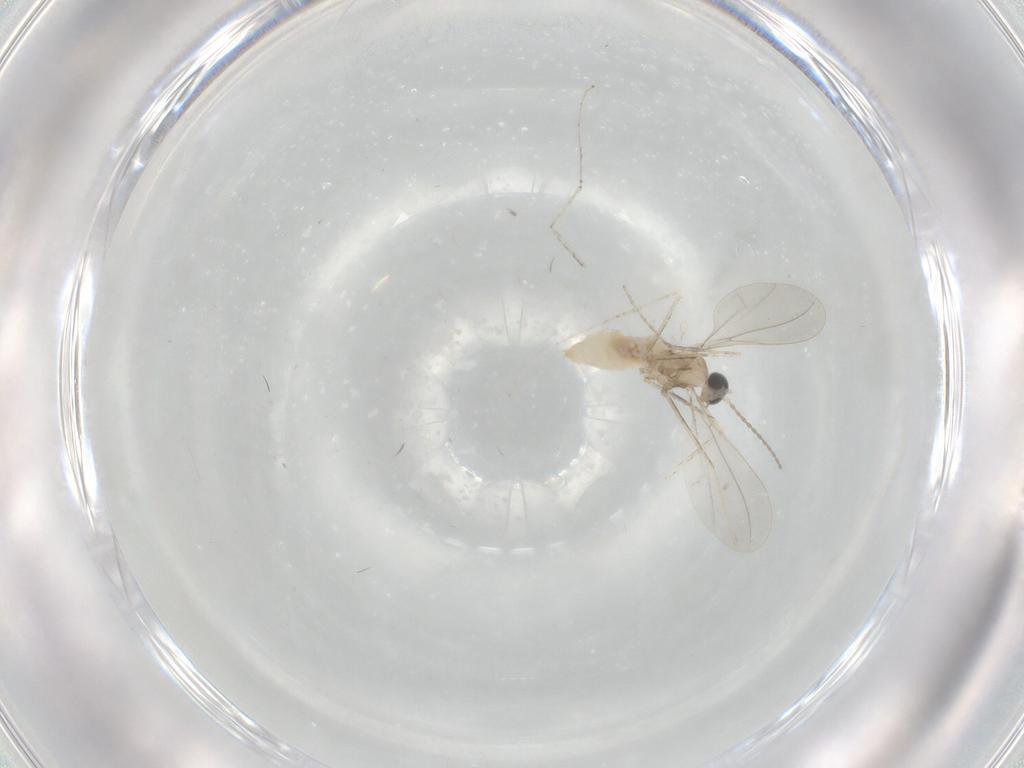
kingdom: Animalia
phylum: Arthropoda
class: Insecta
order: Diptera
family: Cecidomyiidae
